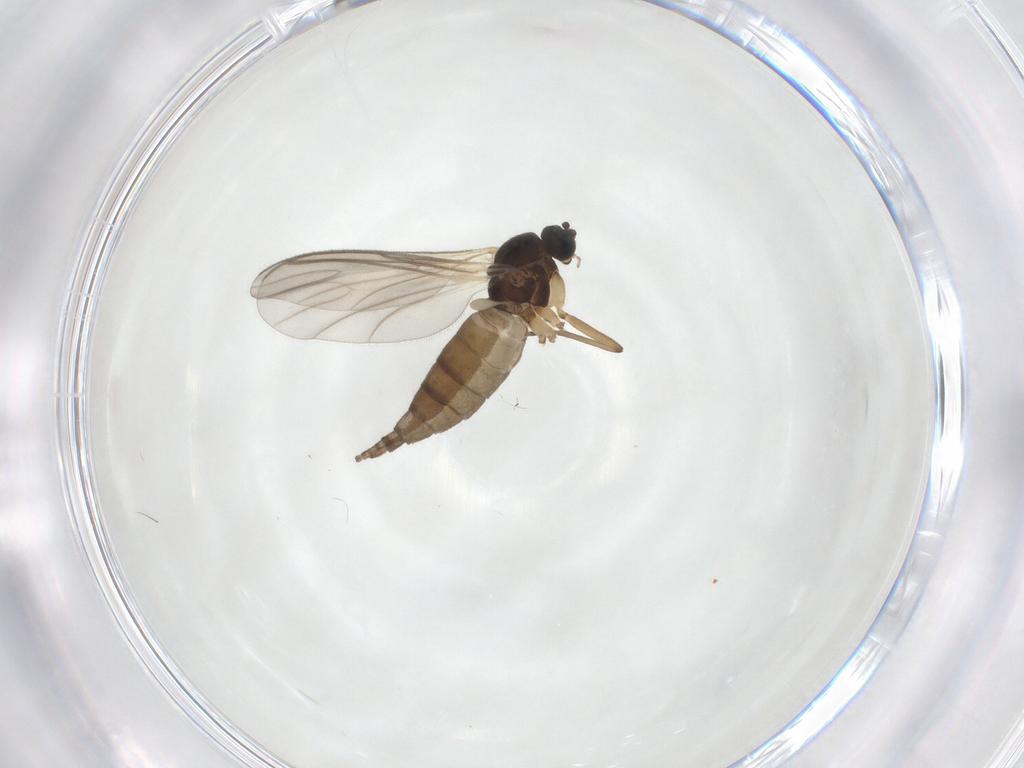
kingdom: Animalia
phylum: Arthropoda
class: Insecta
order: Diptera
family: Sciaridae
